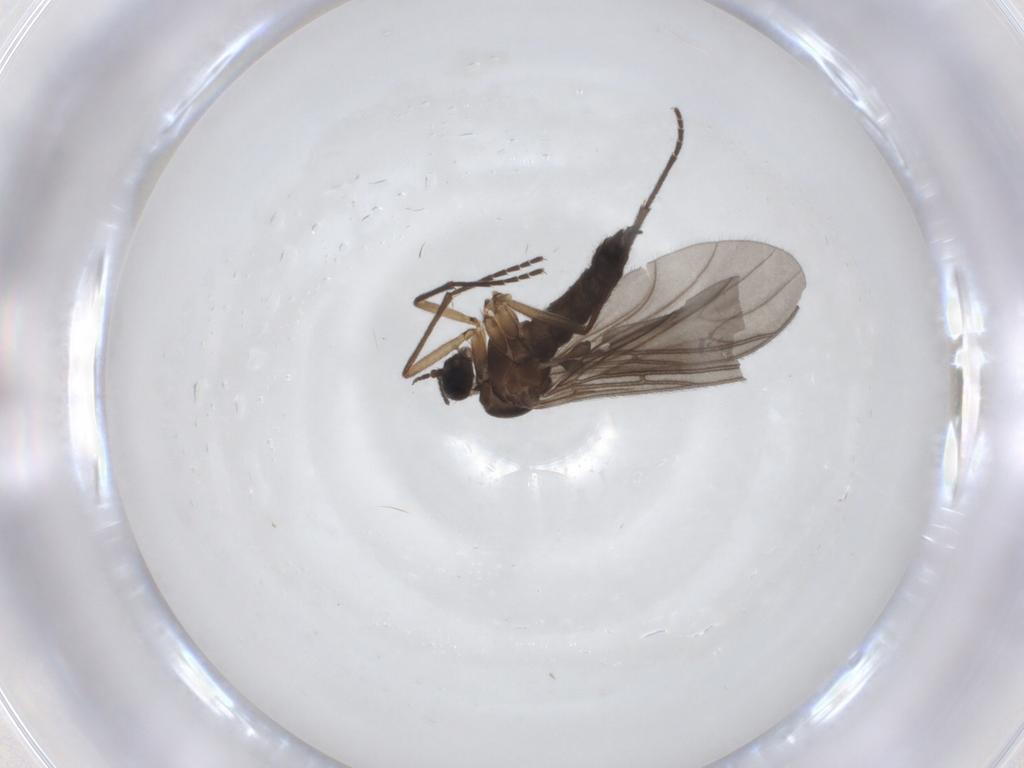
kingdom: Animalia
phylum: Arthropoda
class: Insecta
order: Diptera
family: Sciaridae
